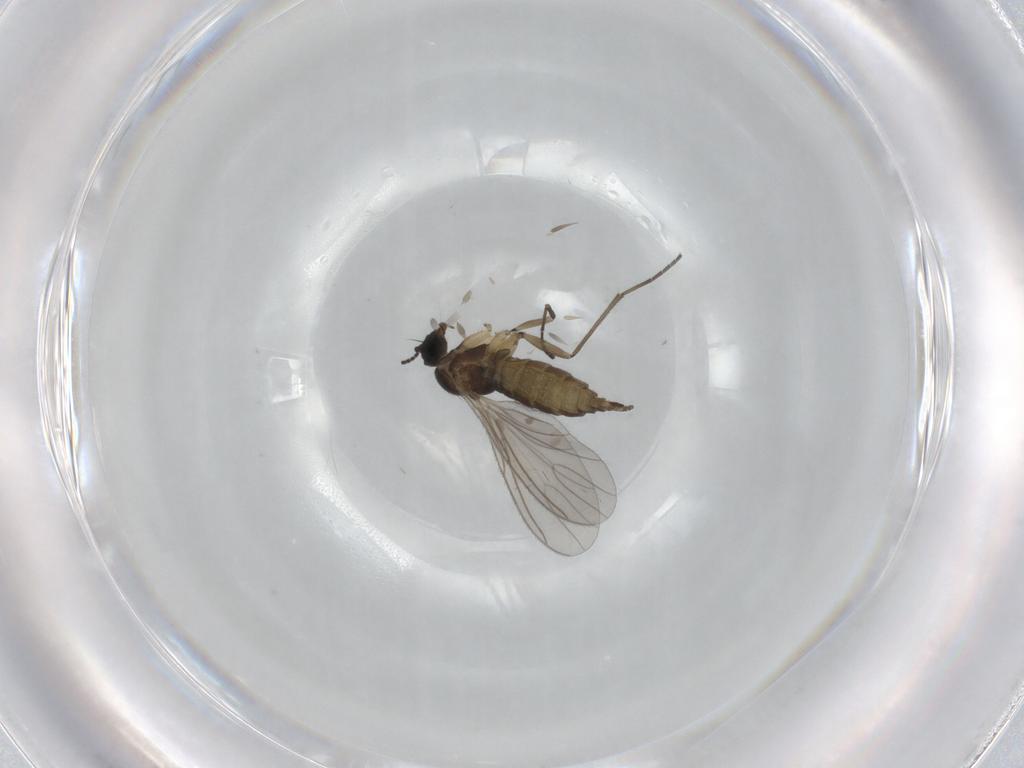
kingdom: Animalia
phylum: Arthropoda
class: Insecta
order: Diptera
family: Sciaridae
